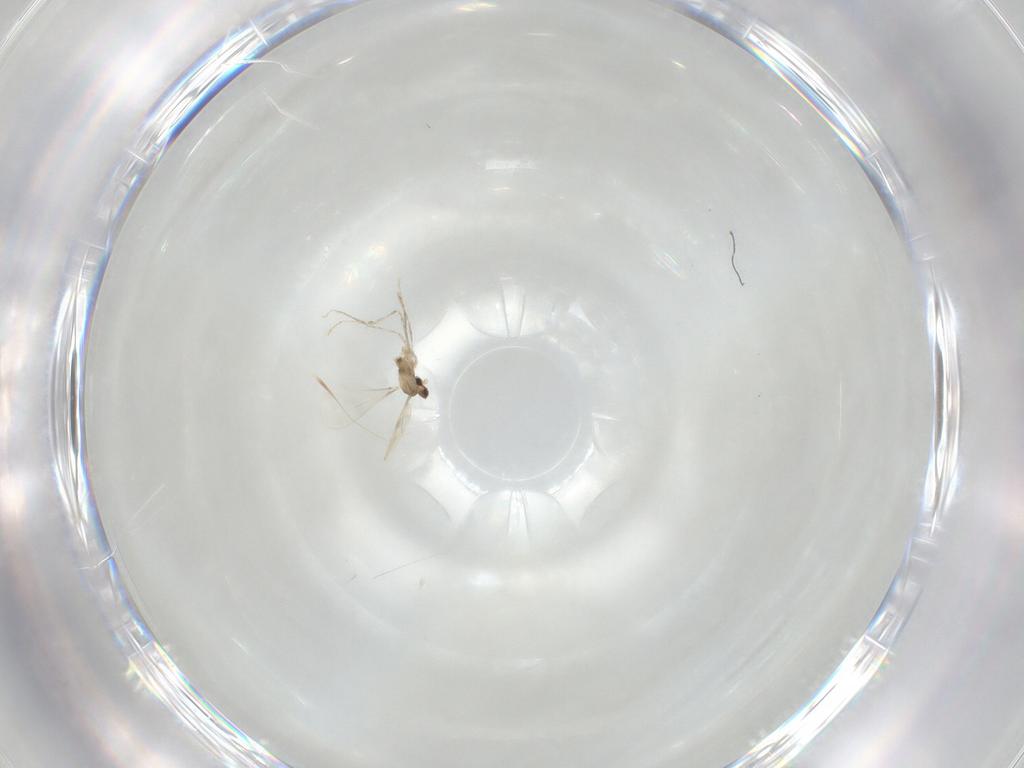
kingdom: Animalia
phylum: Arthropoda
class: Insecta
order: Diptera
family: Cecidomyiidae
